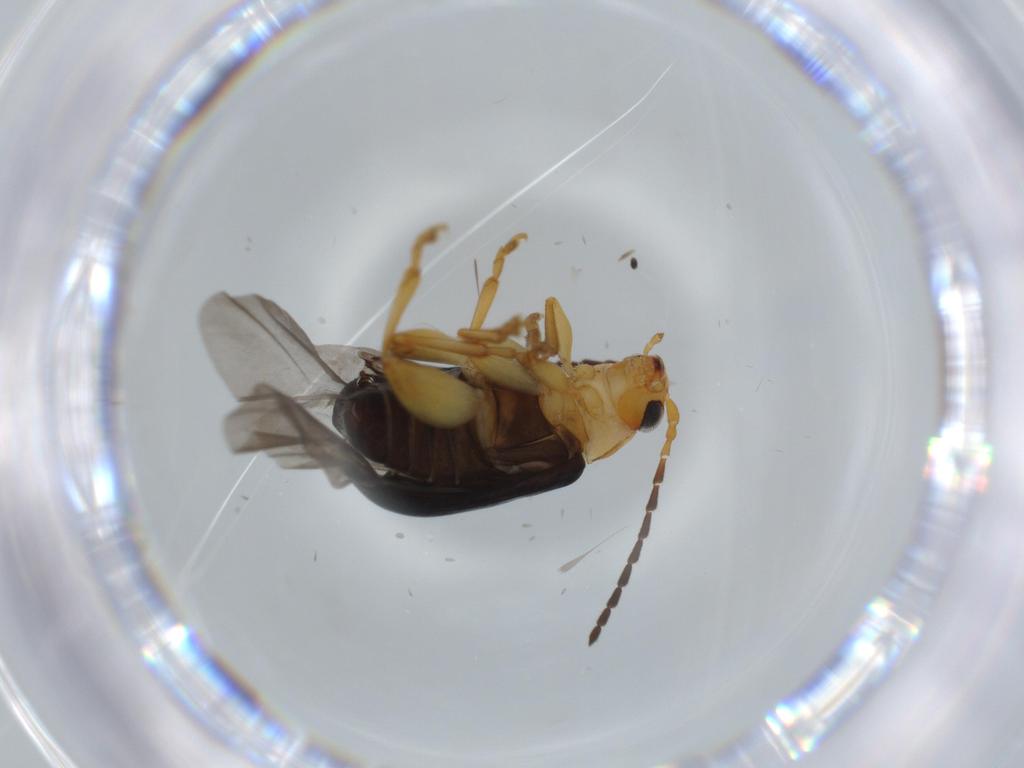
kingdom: Animalia
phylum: Arthropoda
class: Insecta
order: Coleoptera
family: Chrysomelidae
